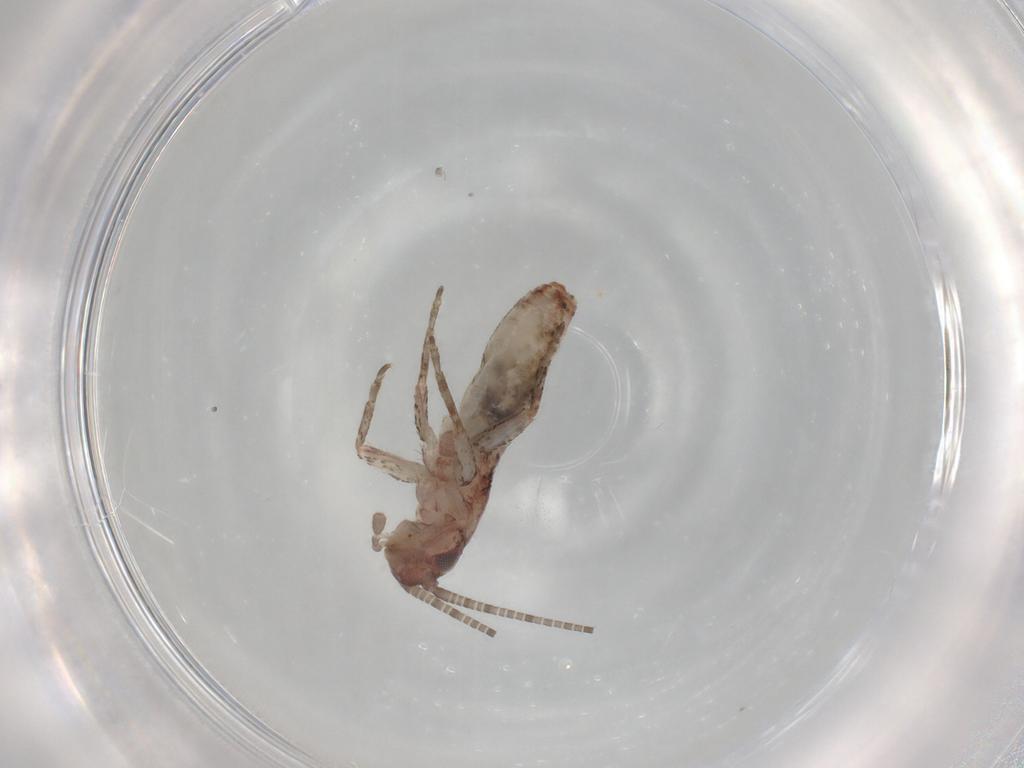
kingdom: Animalia
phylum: Arthropoda
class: Insecta
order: Orthoptera
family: Mogoplistidae
